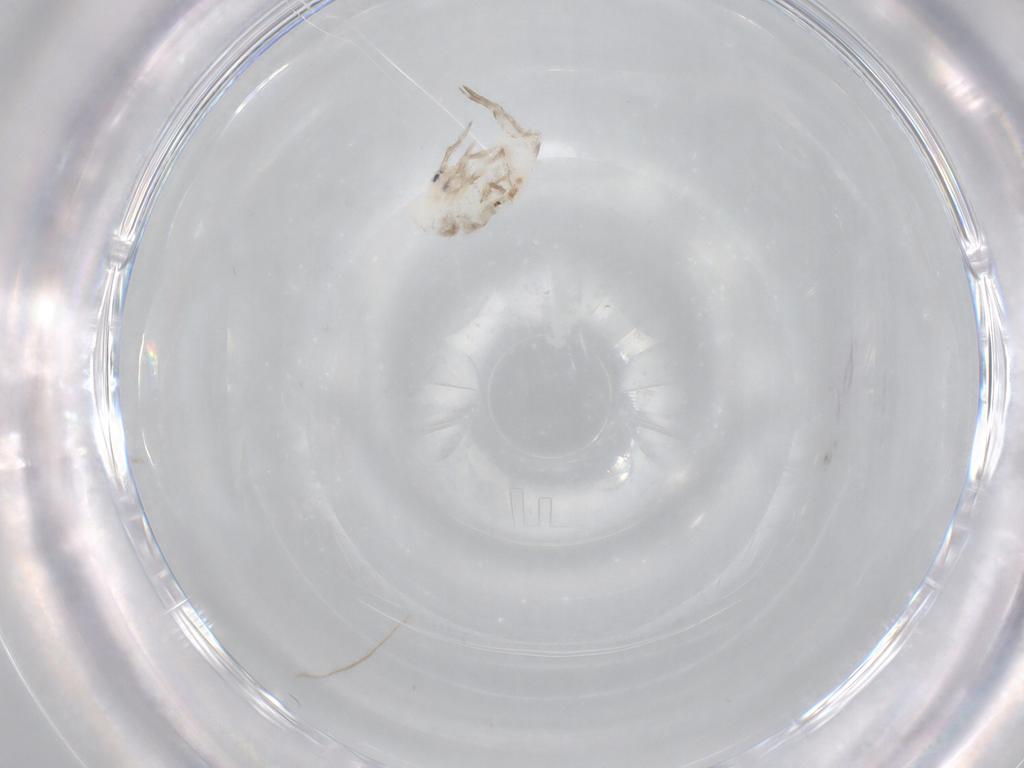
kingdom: Animalia
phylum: Arthropoda
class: Collembola
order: Entomobryomorpha
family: Entomobryidae
